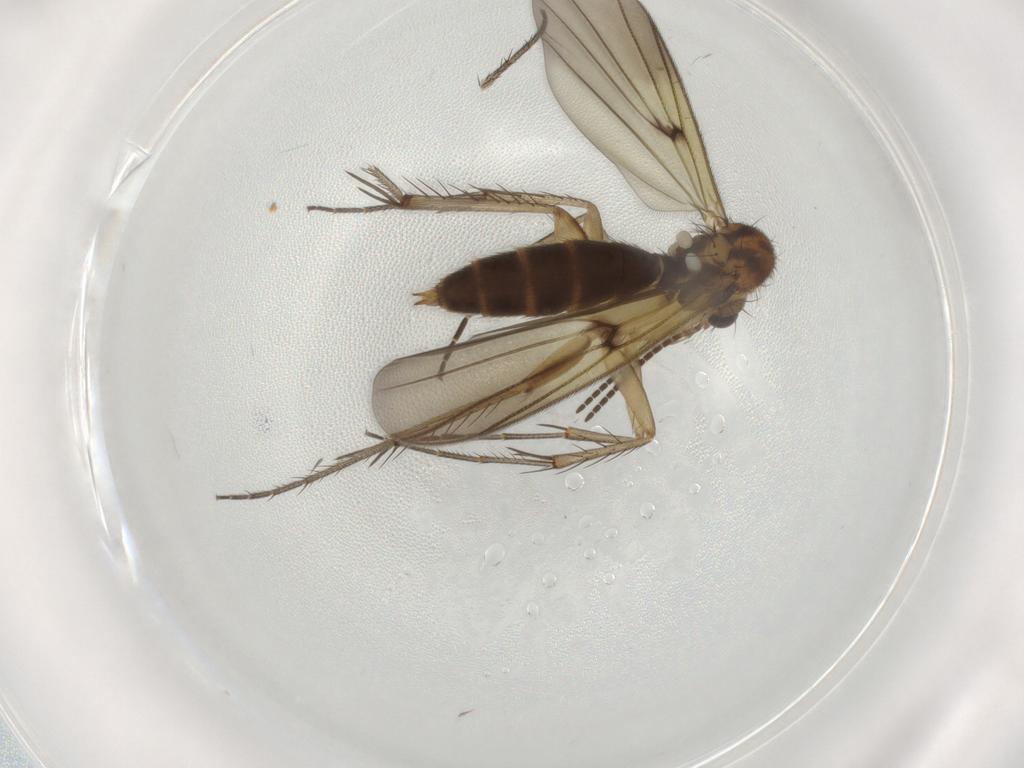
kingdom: Animalia
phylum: Arthropoda
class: Insecta
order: Diptera
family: Mycetophilidae
